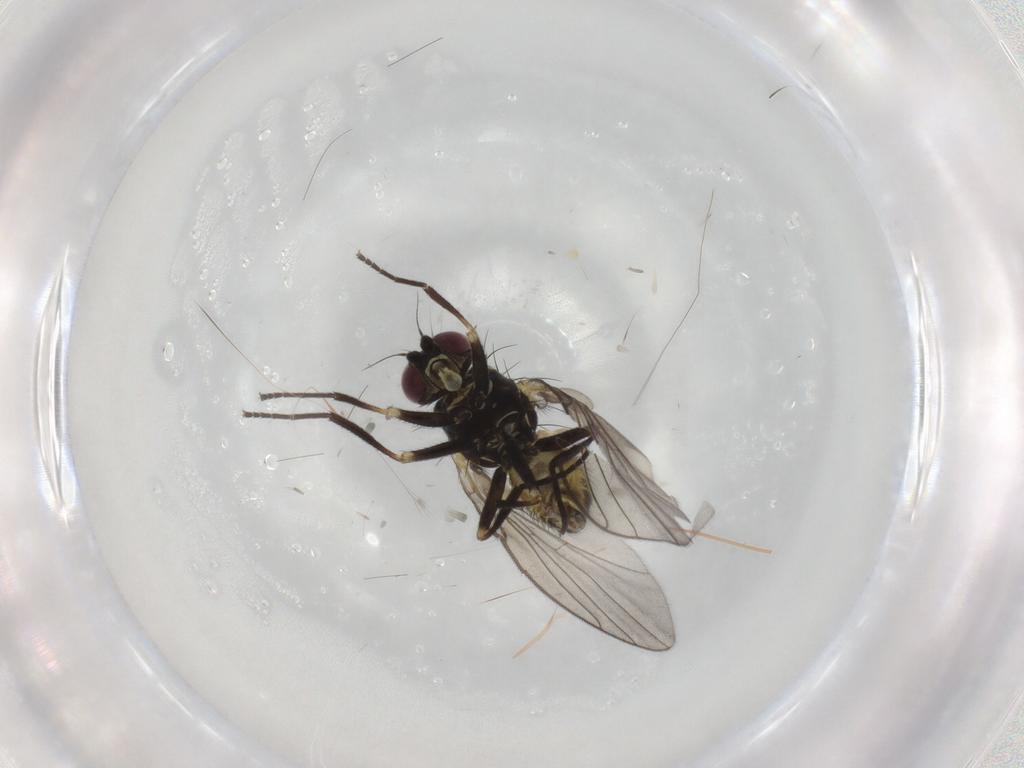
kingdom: Animalia
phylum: Arthropoda
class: Insecta
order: Diptera
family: Agromyzidae
